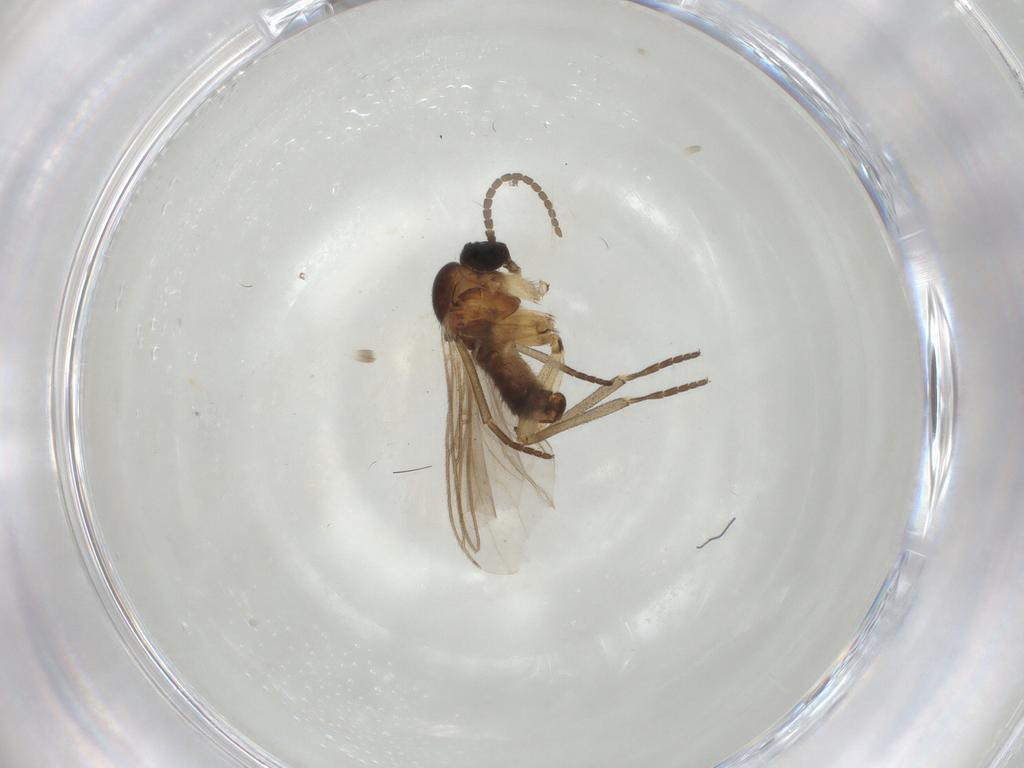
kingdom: Animalia
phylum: Arthropoda
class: Insecta
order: Diptera
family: Sciaridae
